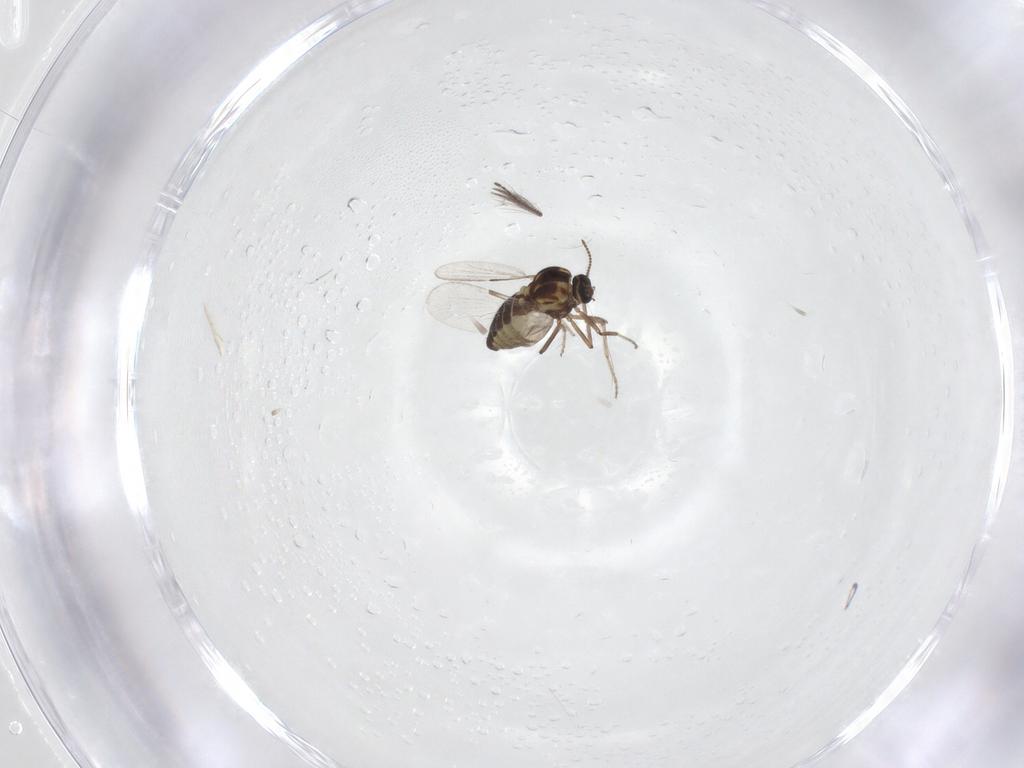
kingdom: Animalia
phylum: Arthropoda
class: Insecta
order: Diptera
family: Ceratopogonidae
